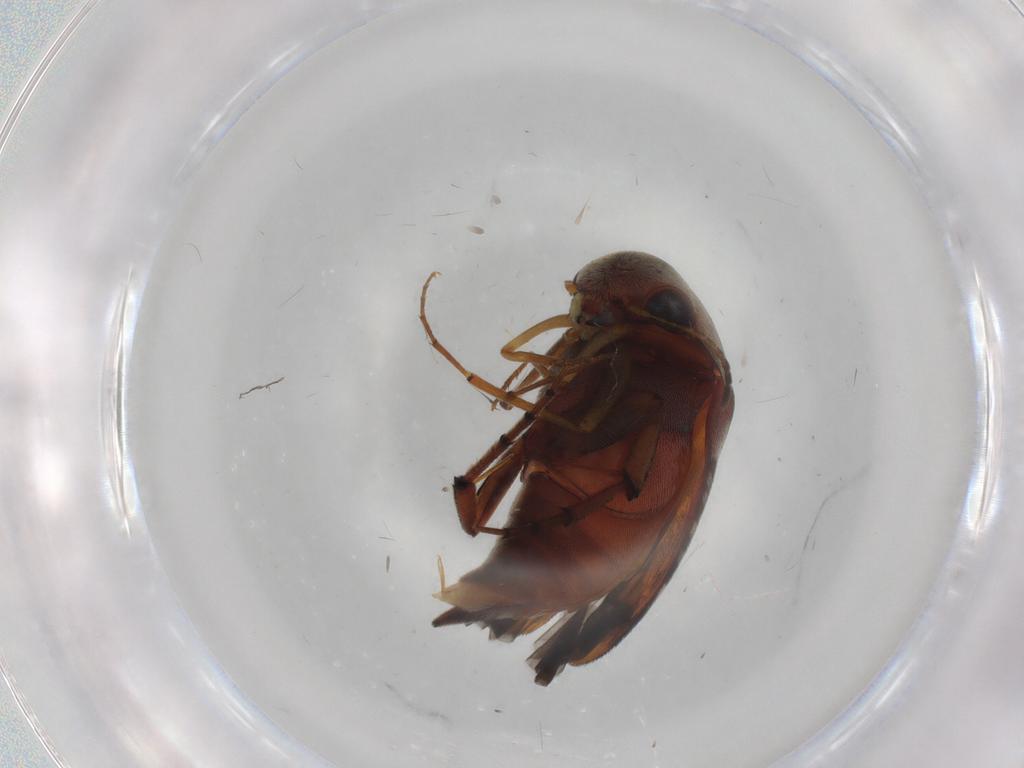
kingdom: Animalia
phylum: Arthropoda
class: Insecta
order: Coleoptera
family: Mordellidae
